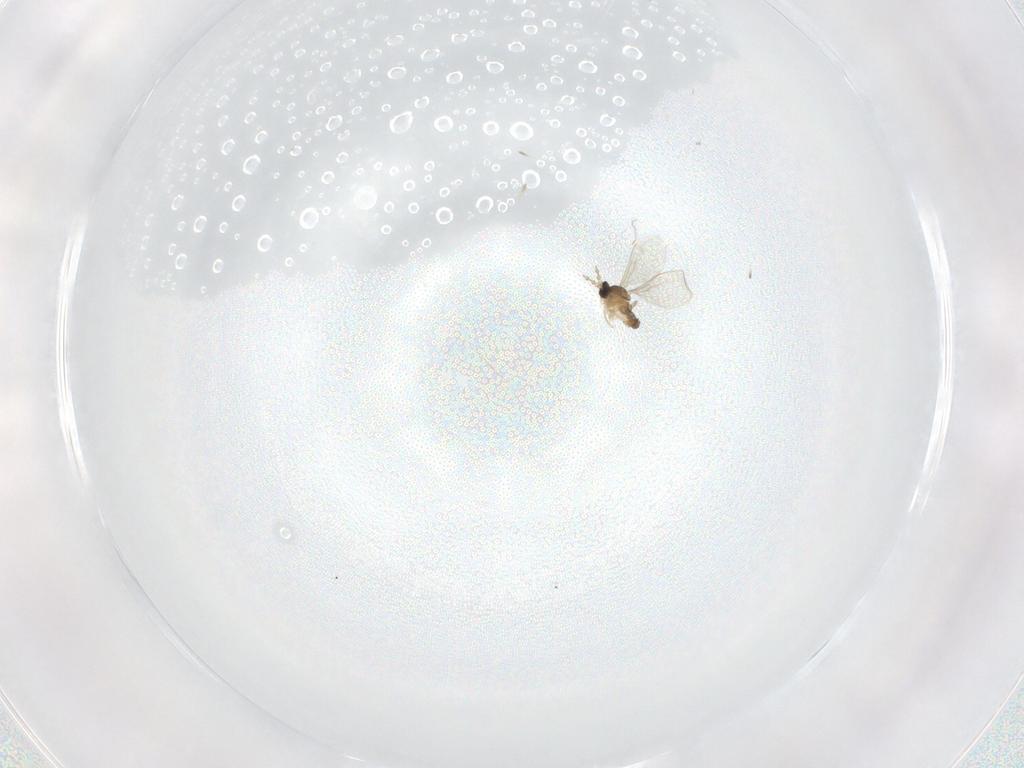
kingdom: Animalia
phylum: Arthropoda
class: Insecta
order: Diptera
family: Cecidomyiidae
